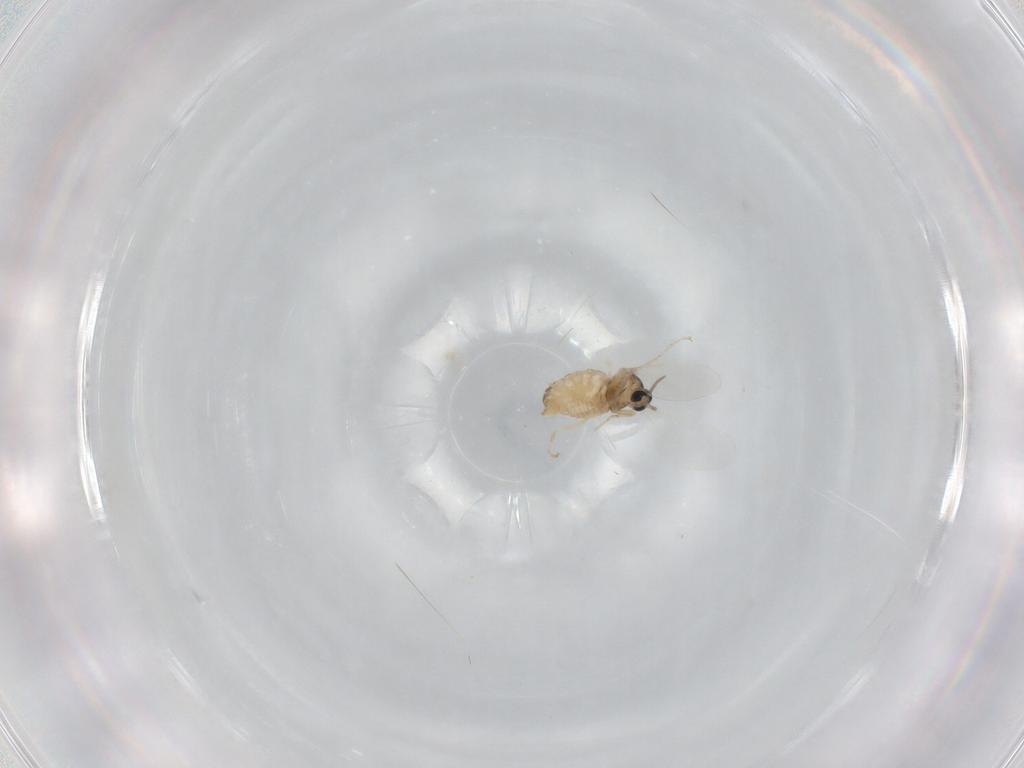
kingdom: Animalia
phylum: Arthropoda
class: Insecta
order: Diptera
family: Cecidomyiidae
